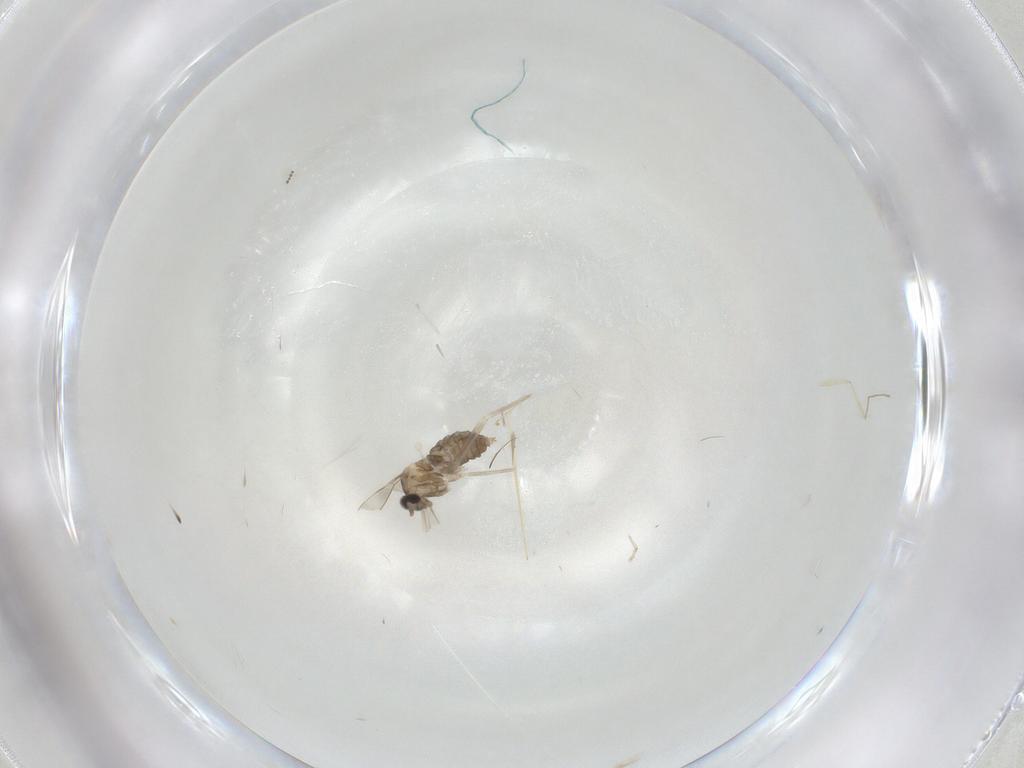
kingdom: Animalia
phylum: Arthropoda
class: Insecta
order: Diptera
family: Cecidomyiidae
